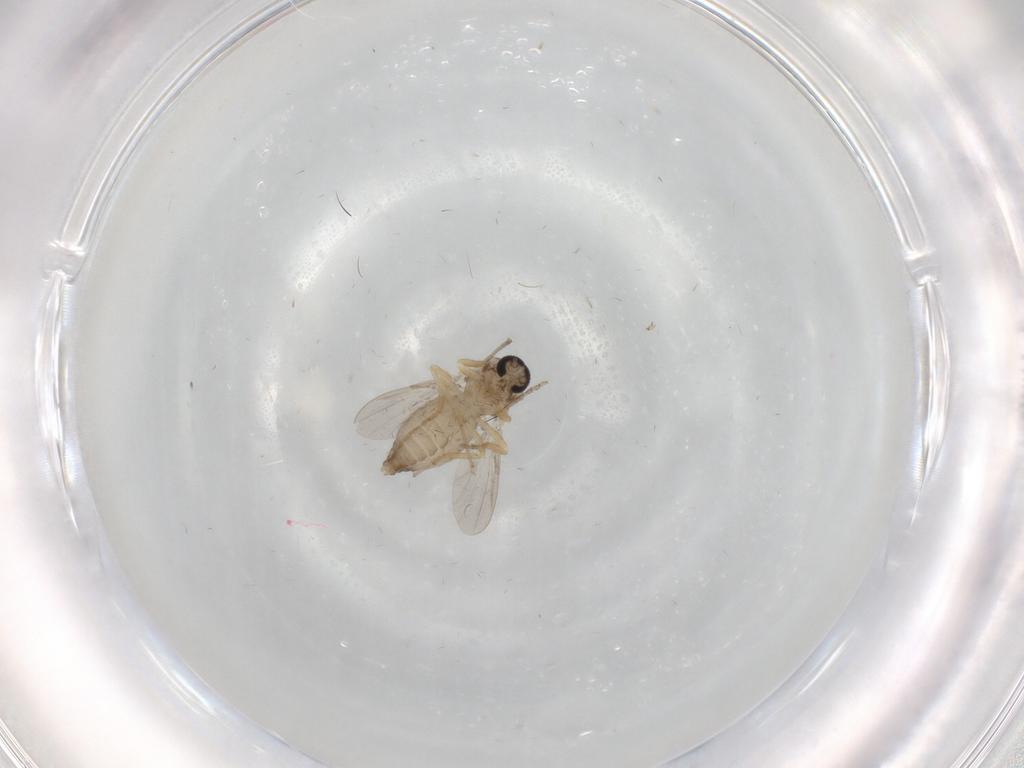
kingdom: Animalia
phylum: Arthropoda
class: Insecta
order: Diptera
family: Ceratopogonidae
